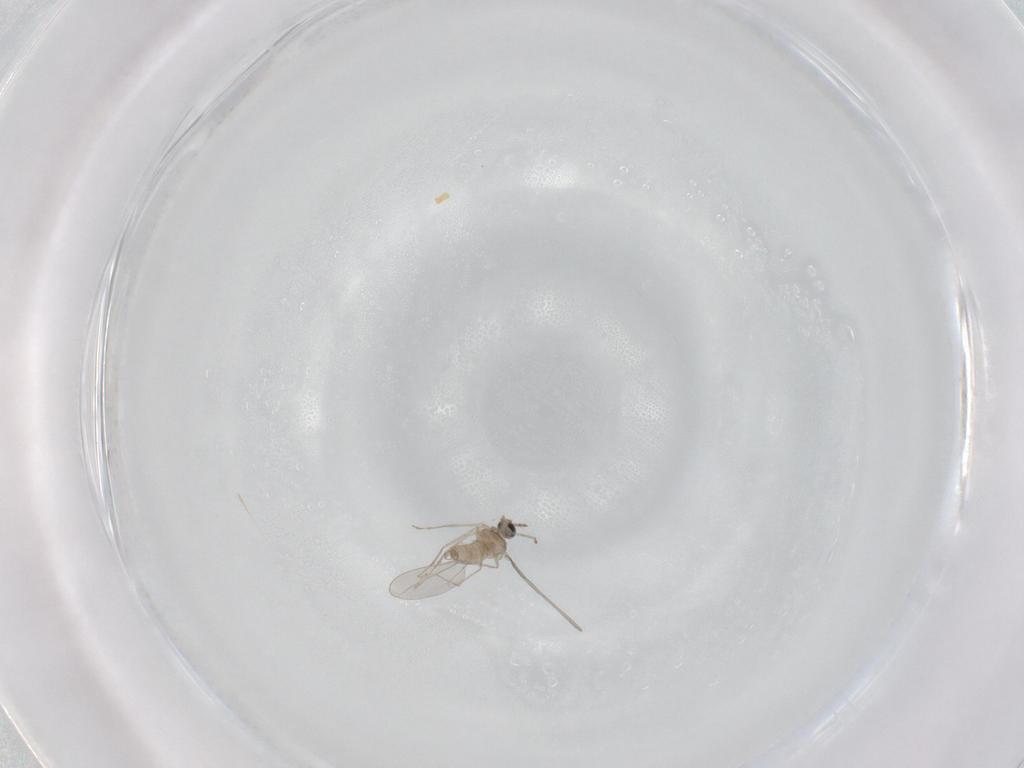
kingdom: Animalia
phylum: Arthropoda
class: Insecta
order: Diptera
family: Cecidomyiidae
